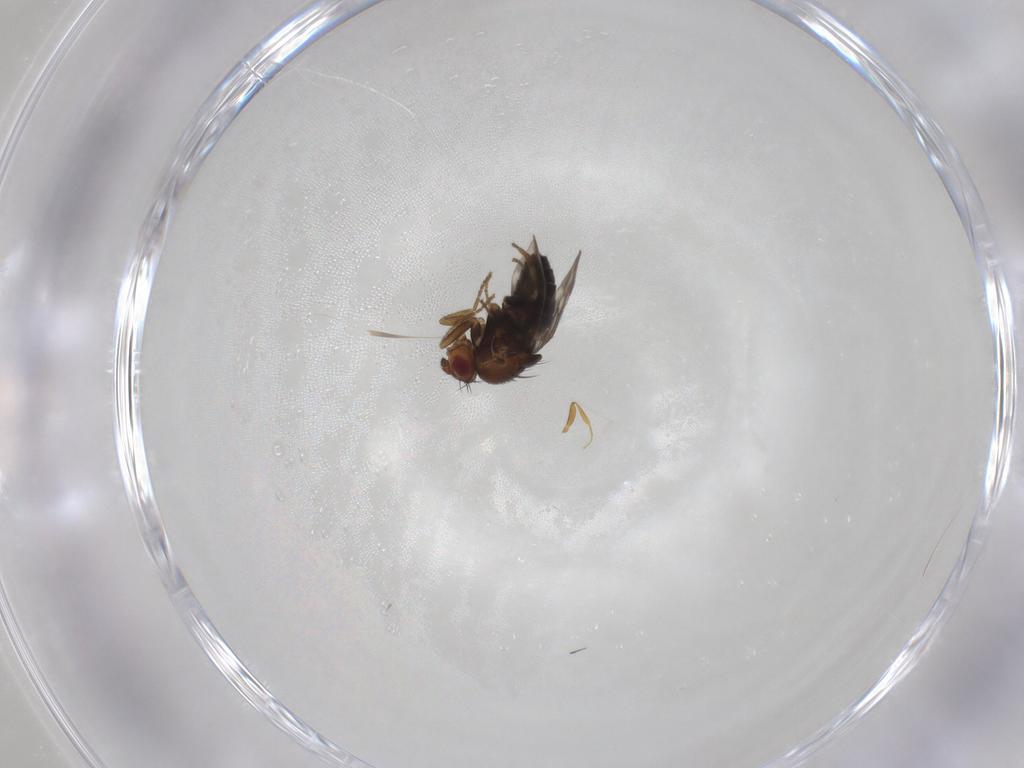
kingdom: Animalia
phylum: Arthropoda
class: Insecta
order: Diptera
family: Sphaeroceridae
